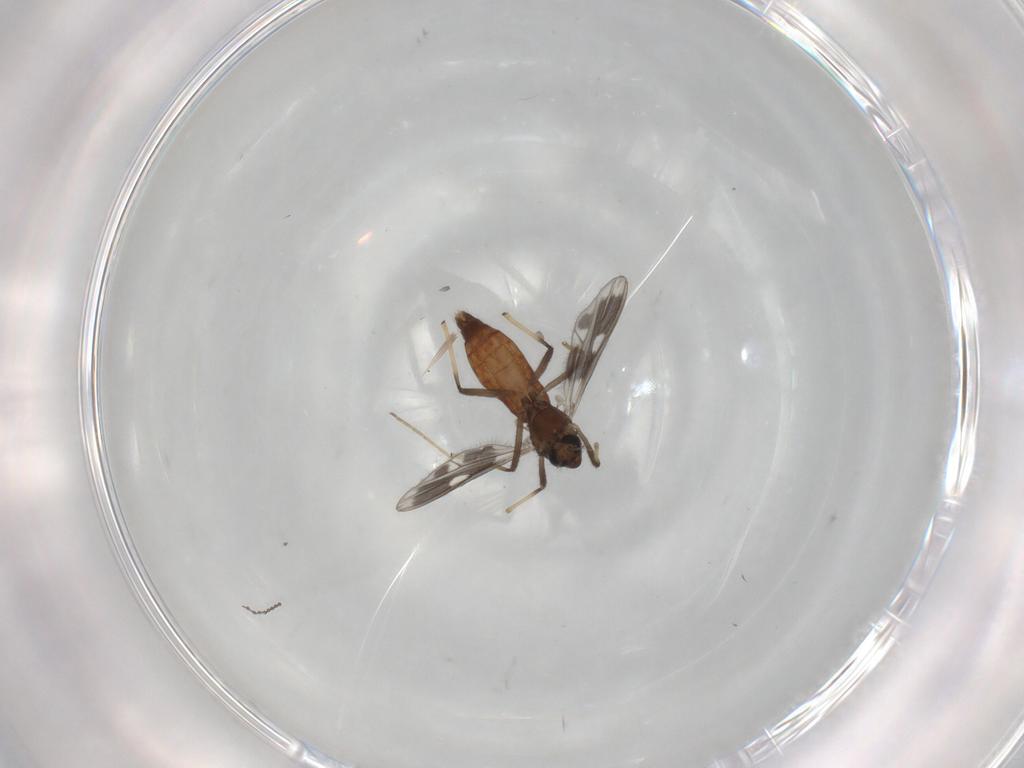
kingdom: Animalia
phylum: Arthropoda
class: Insecta
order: Diptera
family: Chironomidae
